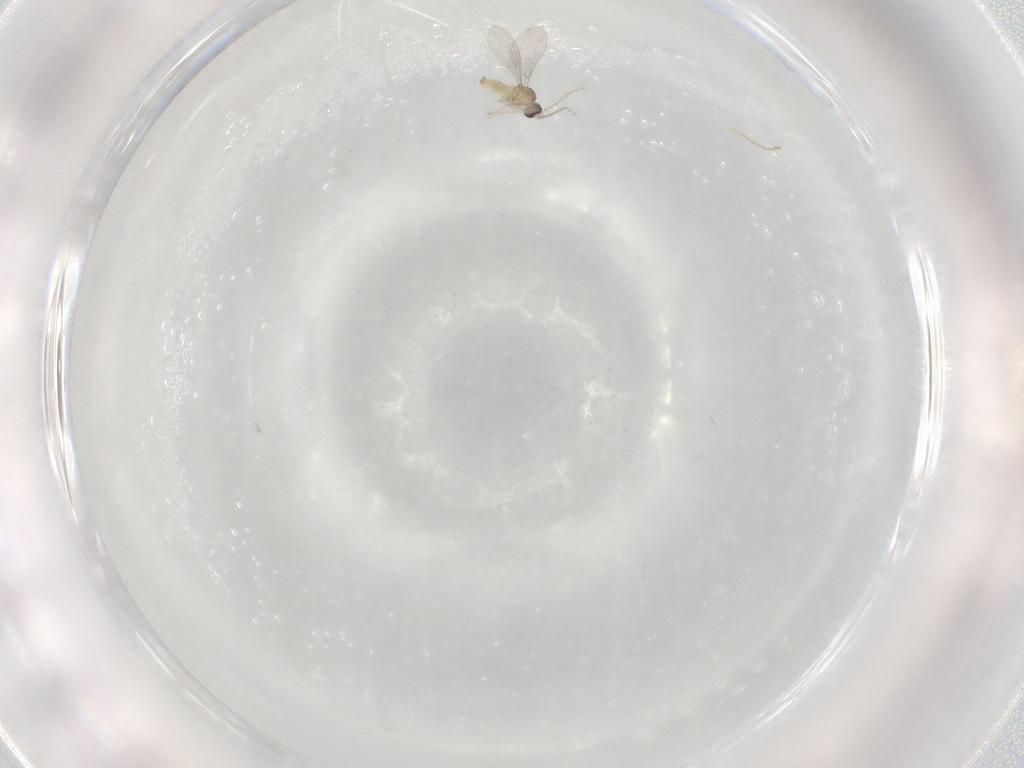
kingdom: Animalia
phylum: Arthropoda
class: Insecta
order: Diptera
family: Cecidomyiidae
